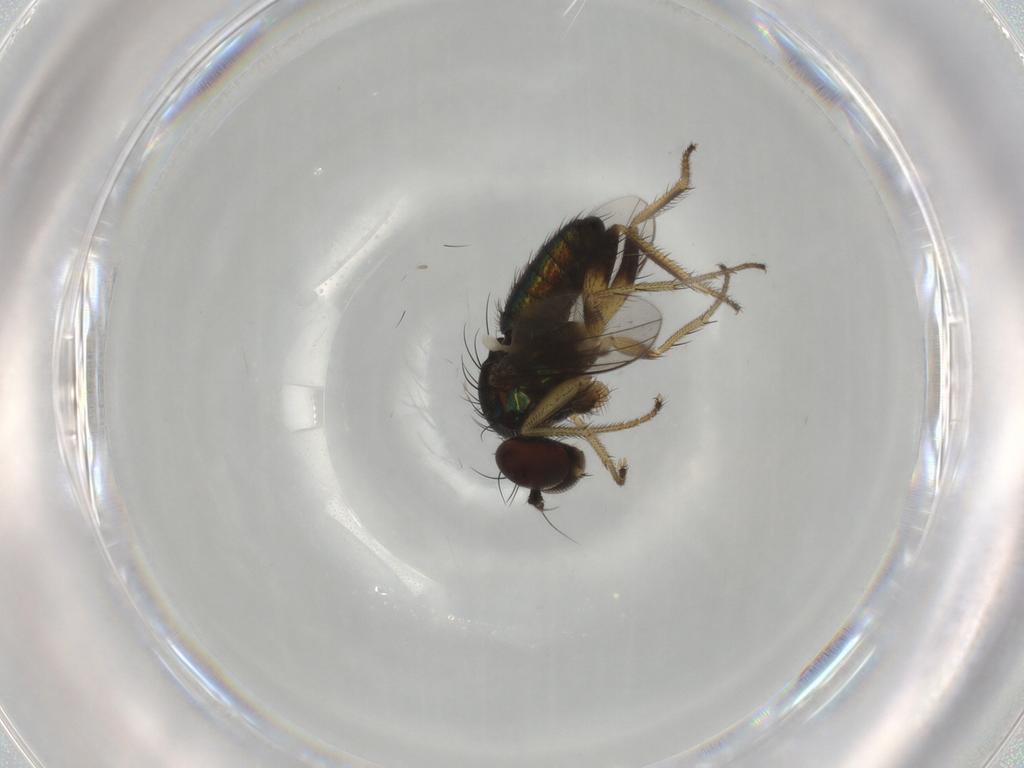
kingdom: Animalia
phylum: Arthropoda
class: Insecta
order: Diptera
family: Dolichopodidae
